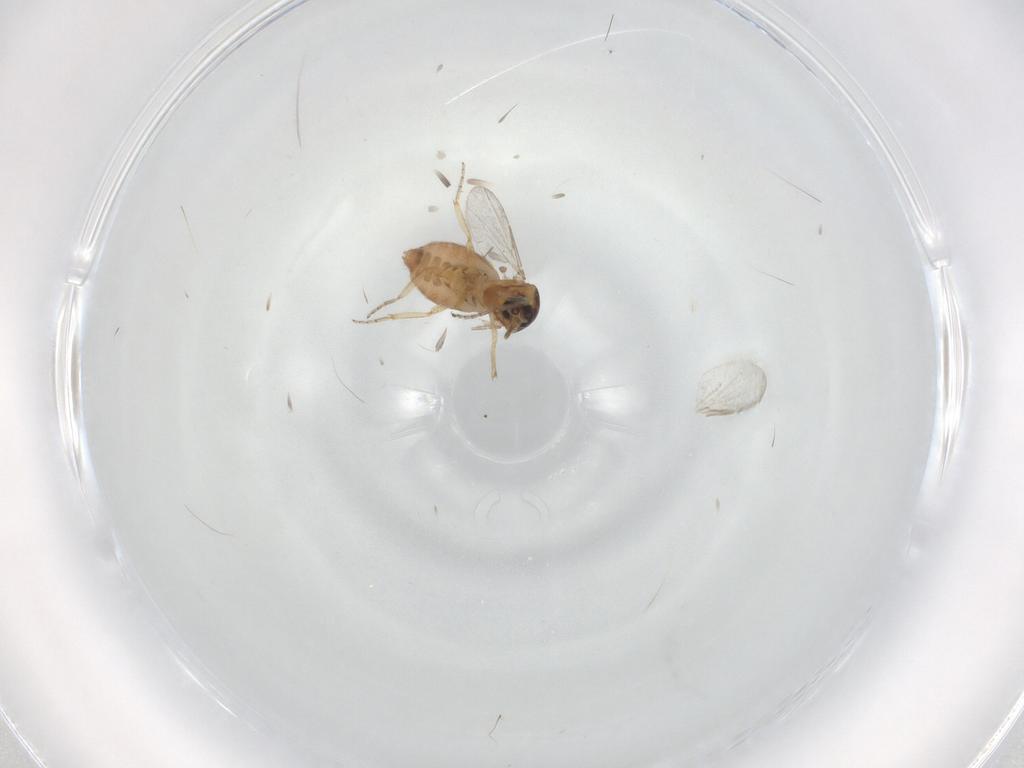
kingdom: Animalia
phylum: Arthropoda
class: Insecta
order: Diptera
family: Ceratopogonidae
